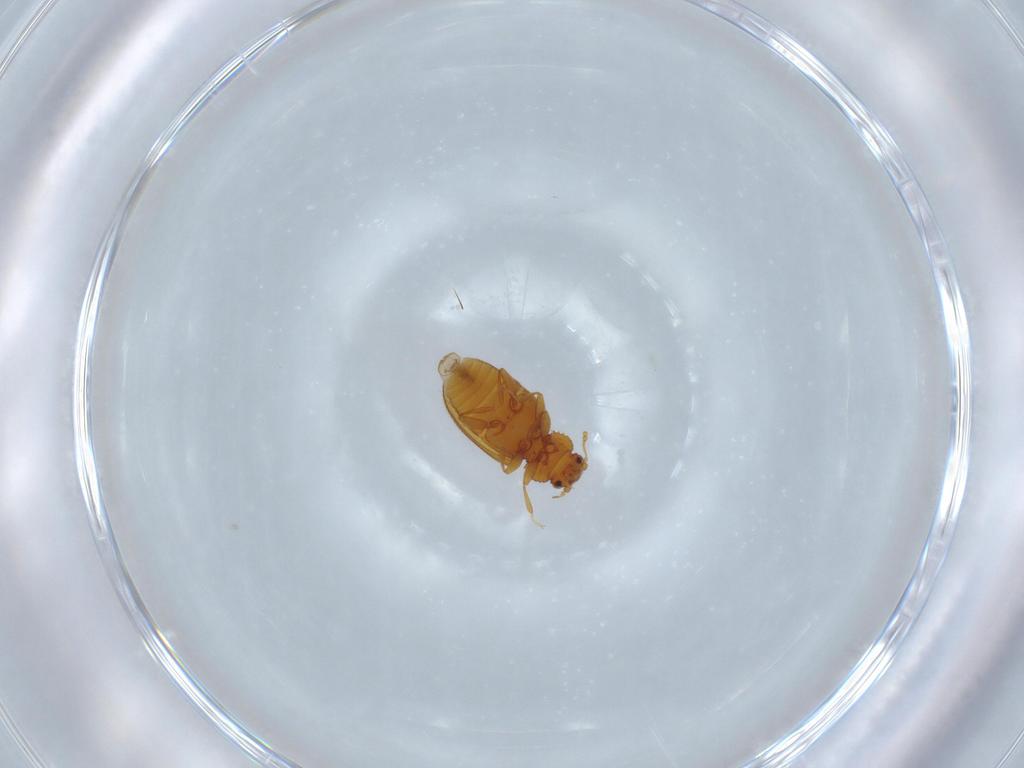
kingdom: Animalia
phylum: Arthropoda
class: Insecta
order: Coleoptera
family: Latridiidae
